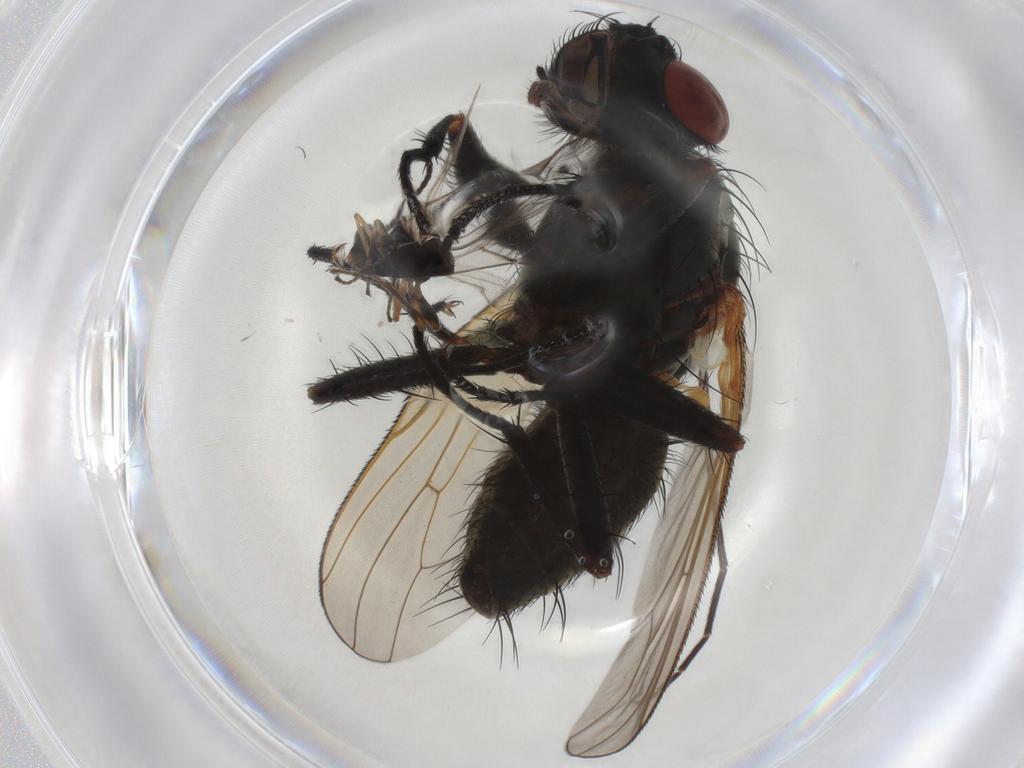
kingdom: Animalia
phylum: Arthropoda
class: Insecta
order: Diptera
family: Anthomyiidae
